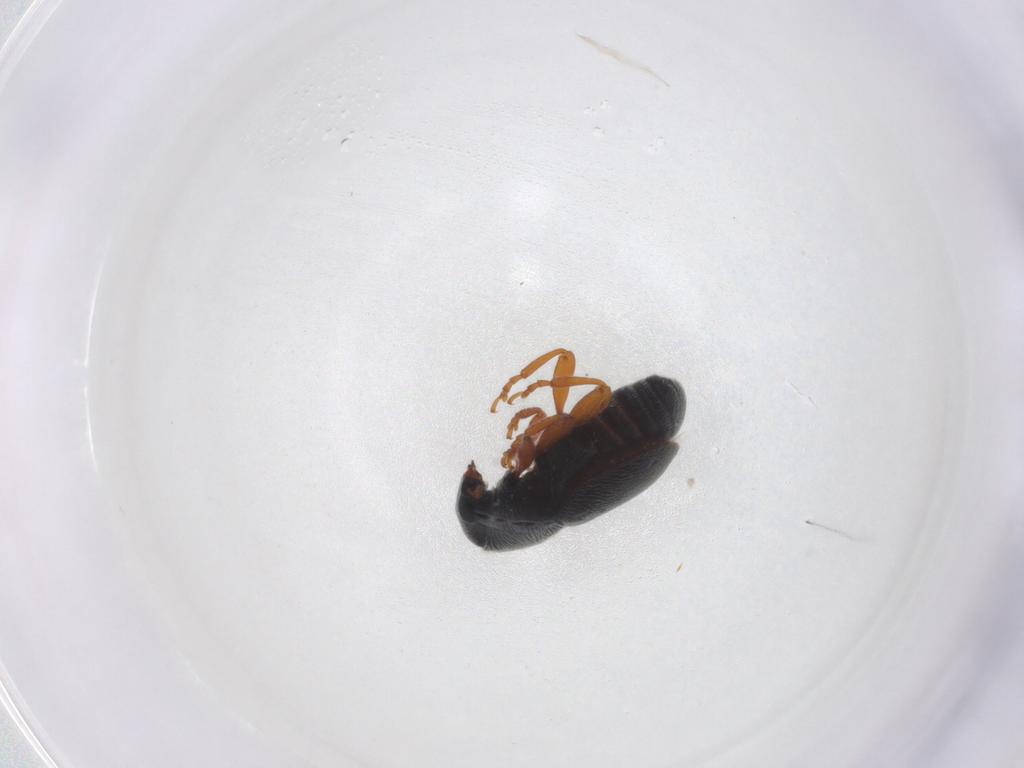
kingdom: Animalia
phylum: Arthropoda
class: Insecta
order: Coleoptera
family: Anthribidae
